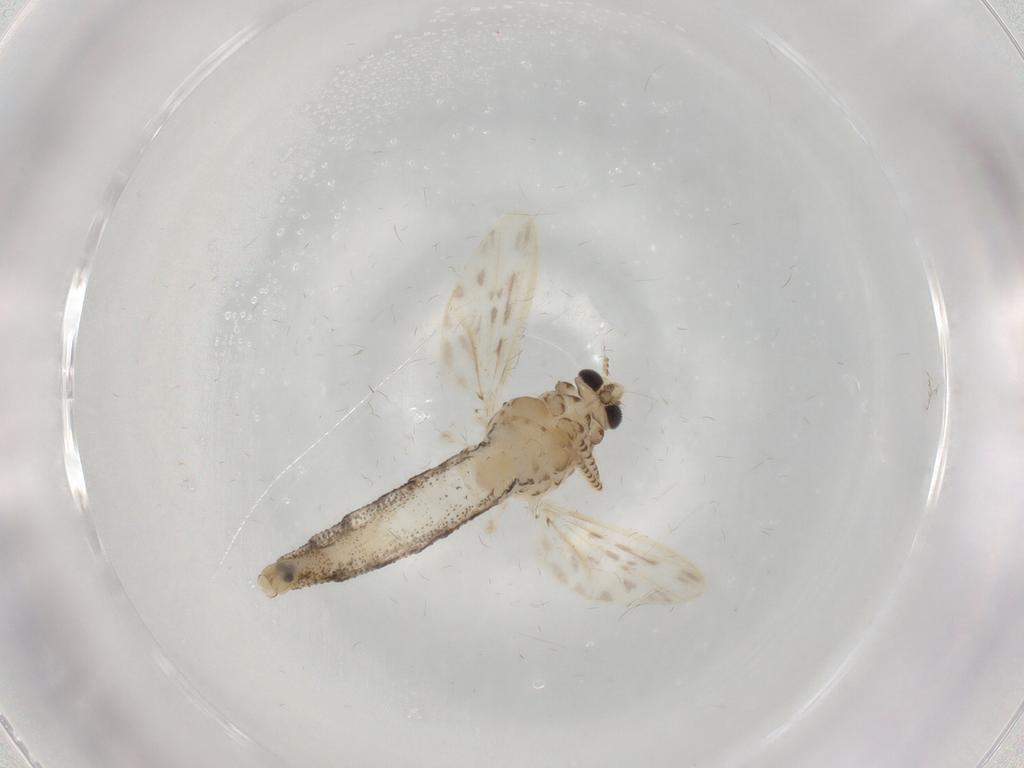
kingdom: Animalia
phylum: Arthropoda
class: Insecta
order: Diptera
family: Chaoboridae
